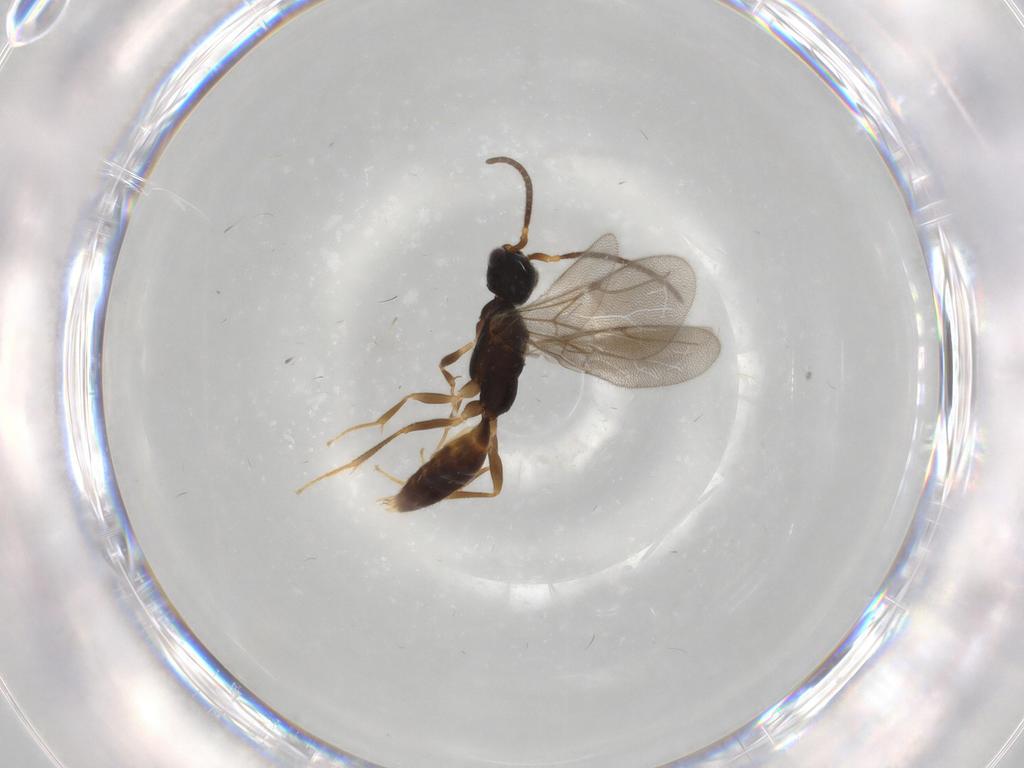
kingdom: Animalia
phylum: Arthropoda
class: Insecta
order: Hymenoptera
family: Bethylidae
